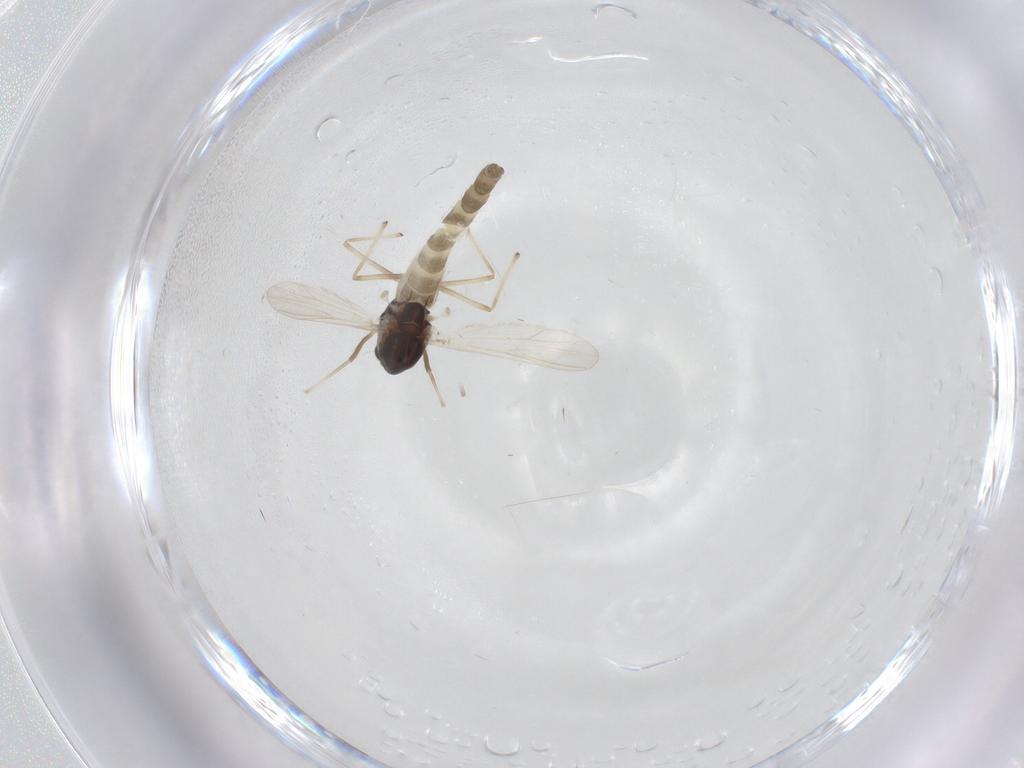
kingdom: Animalia
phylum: Arthropoda
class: Insecta
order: Diptera
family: Chironomidae
